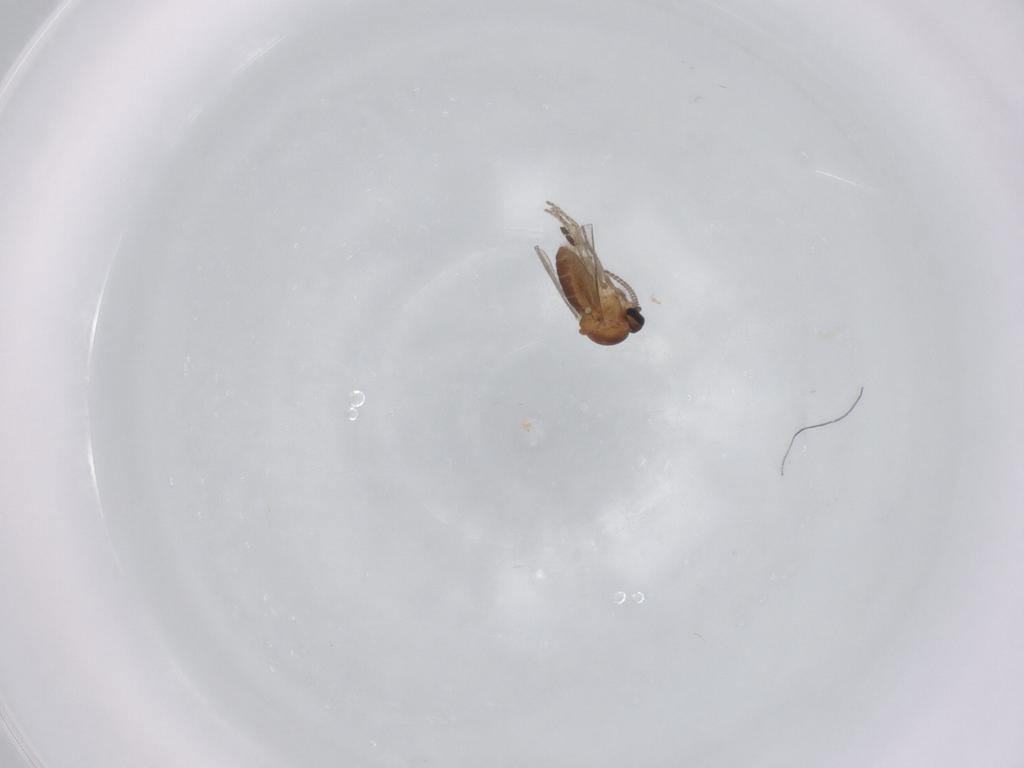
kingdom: Animalia
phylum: Arthropoda
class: Insecta
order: Diptera
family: Ceratopogonidae
